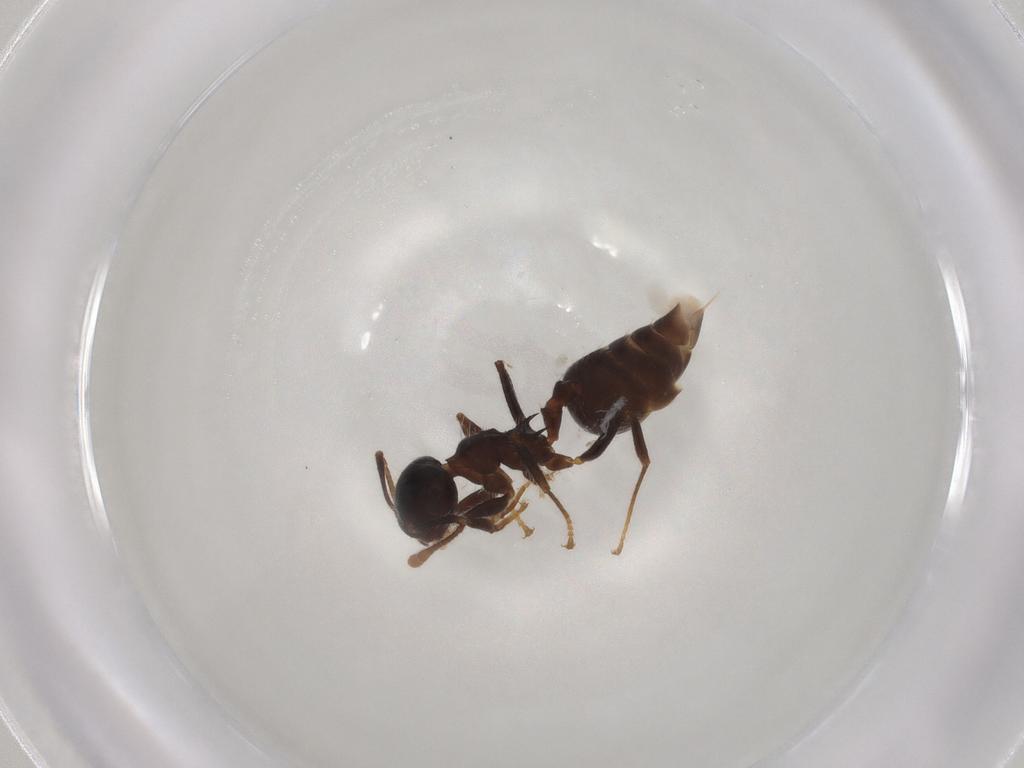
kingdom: Animalia
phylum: Arthropoda
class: Insecta
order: Hymenoptera
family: Formicidae
